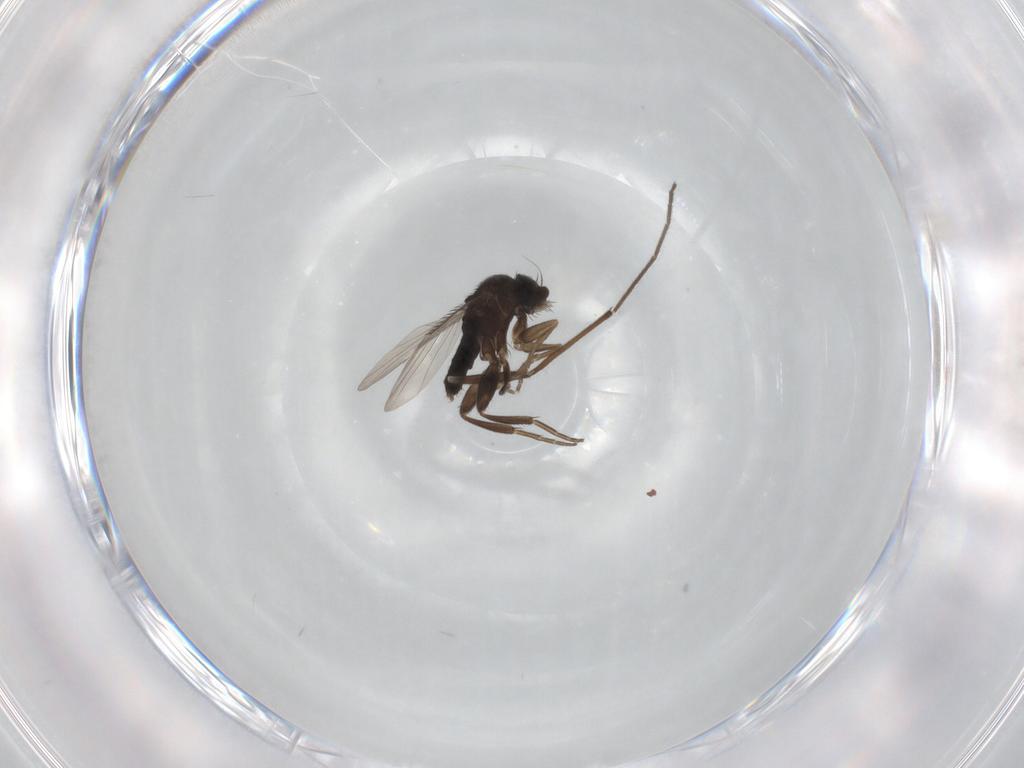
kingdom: Animalia
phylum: Arthropoda
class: Insecta
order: Diptera
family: Phoridae
